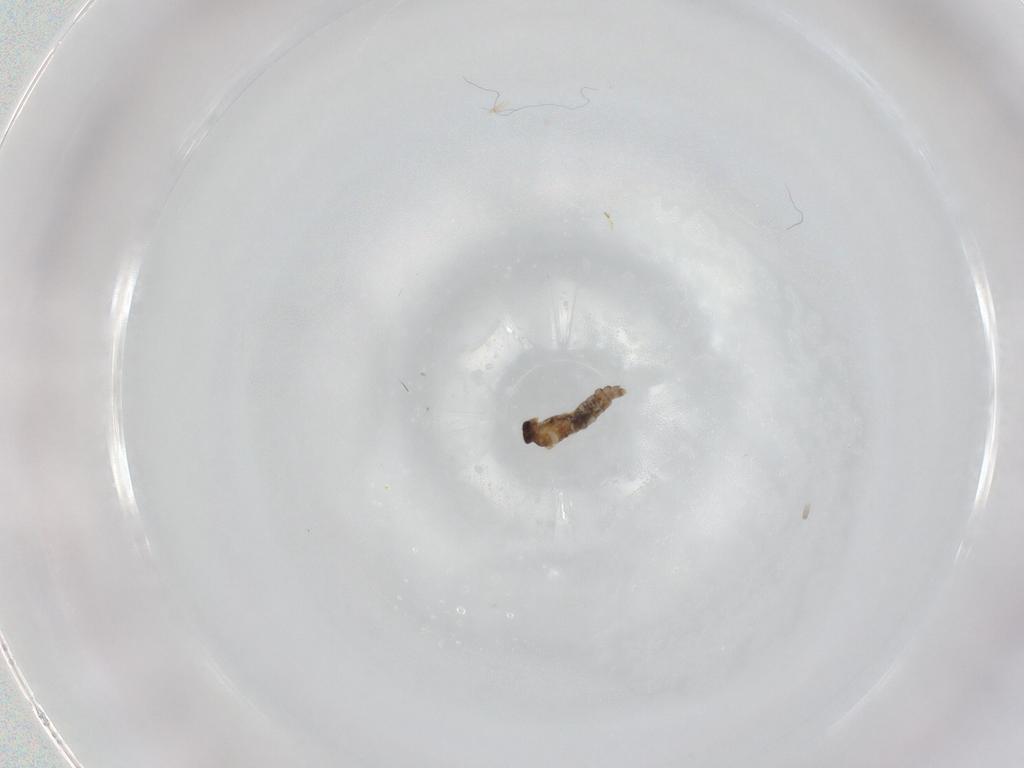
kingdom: Animalia
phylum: Arthropoda
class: Insecta
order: Diptera
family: Cecidomyiidae
